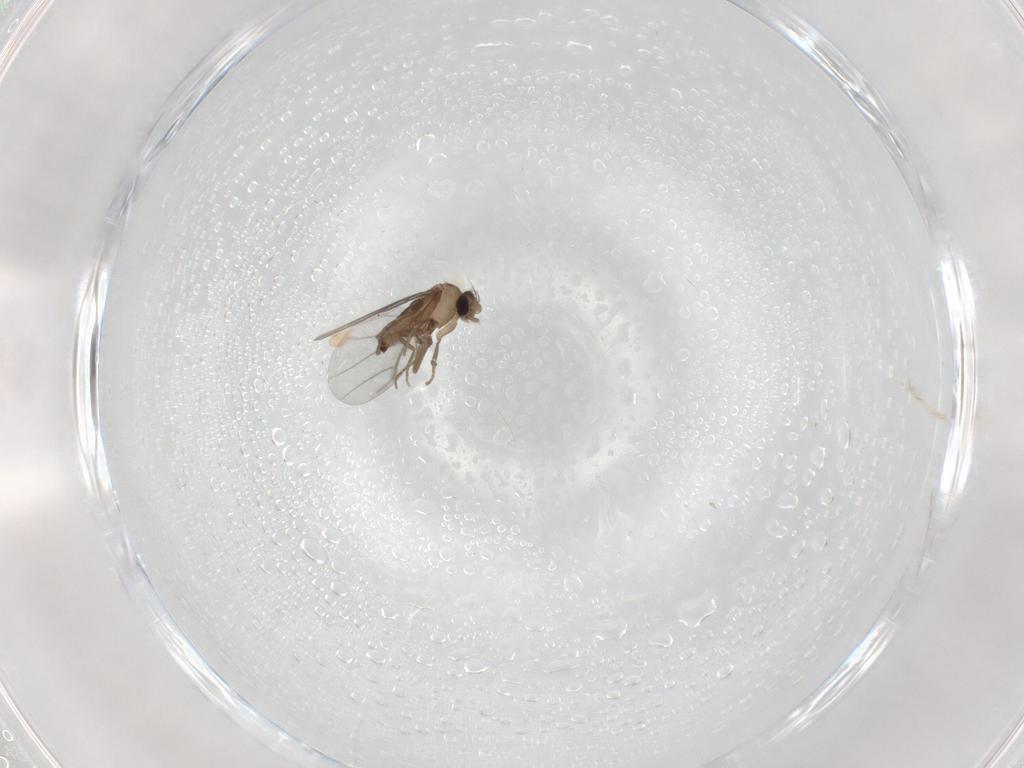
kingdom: Animalia
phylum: Arthropoda
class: Insecta
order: Diptera
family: Sciaridae
